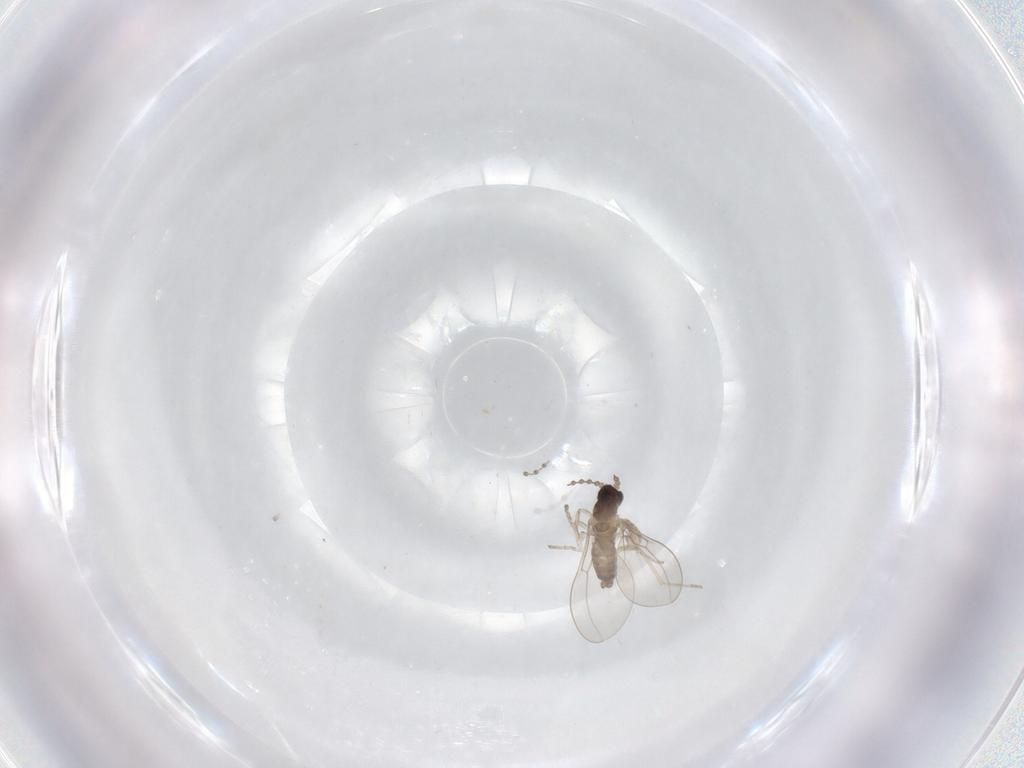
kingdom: Animalia
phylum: Arthropoda
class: Insecta
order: Diptera
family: Cecidomyiidae
